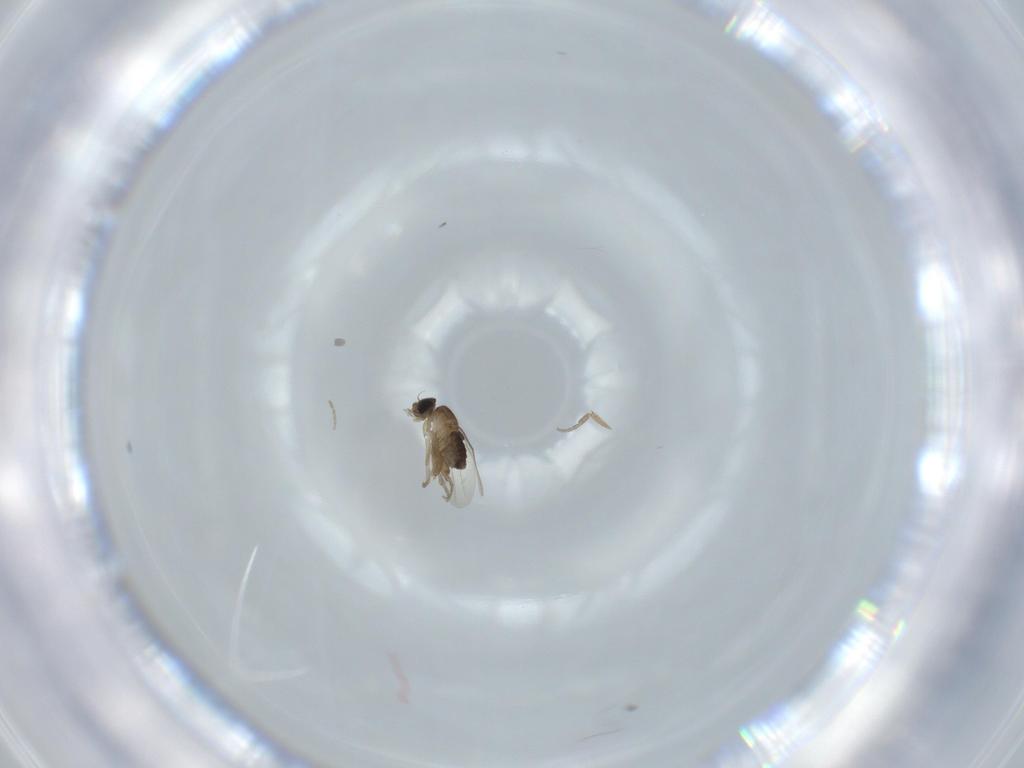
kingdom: Animalia
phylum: Arthropoda
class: Insecta
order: Diptera
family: Phoridae
